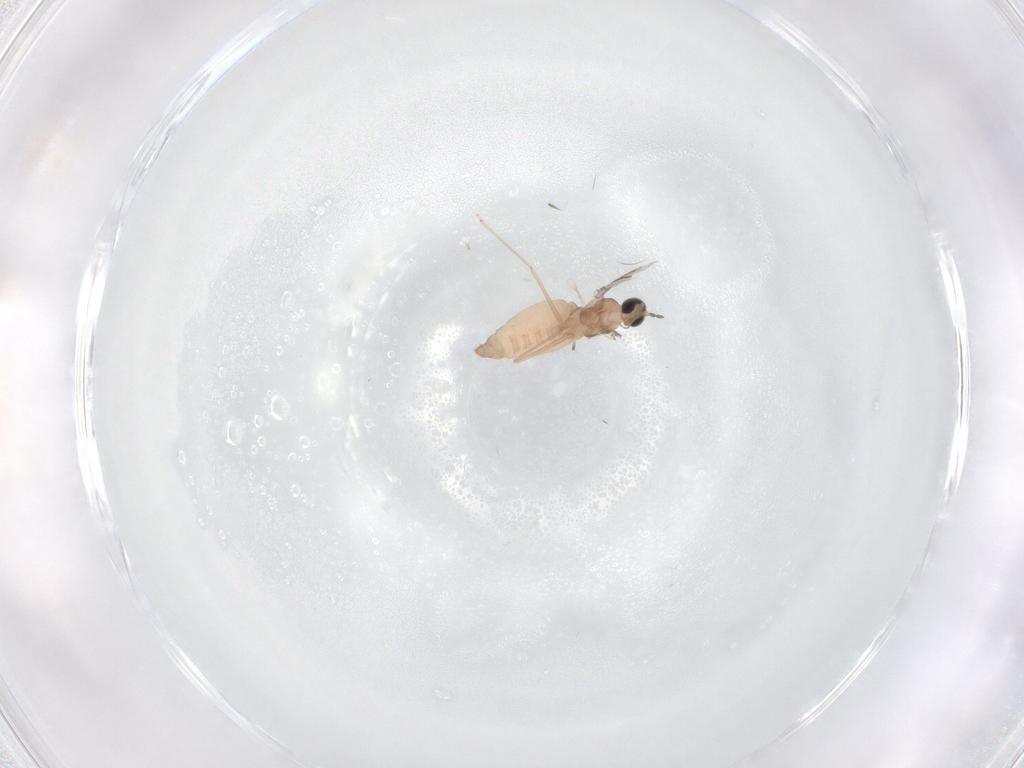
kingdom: Animalia
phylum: Arthropoda
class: Insecta
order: Diptera
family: Cecidomyiidae
